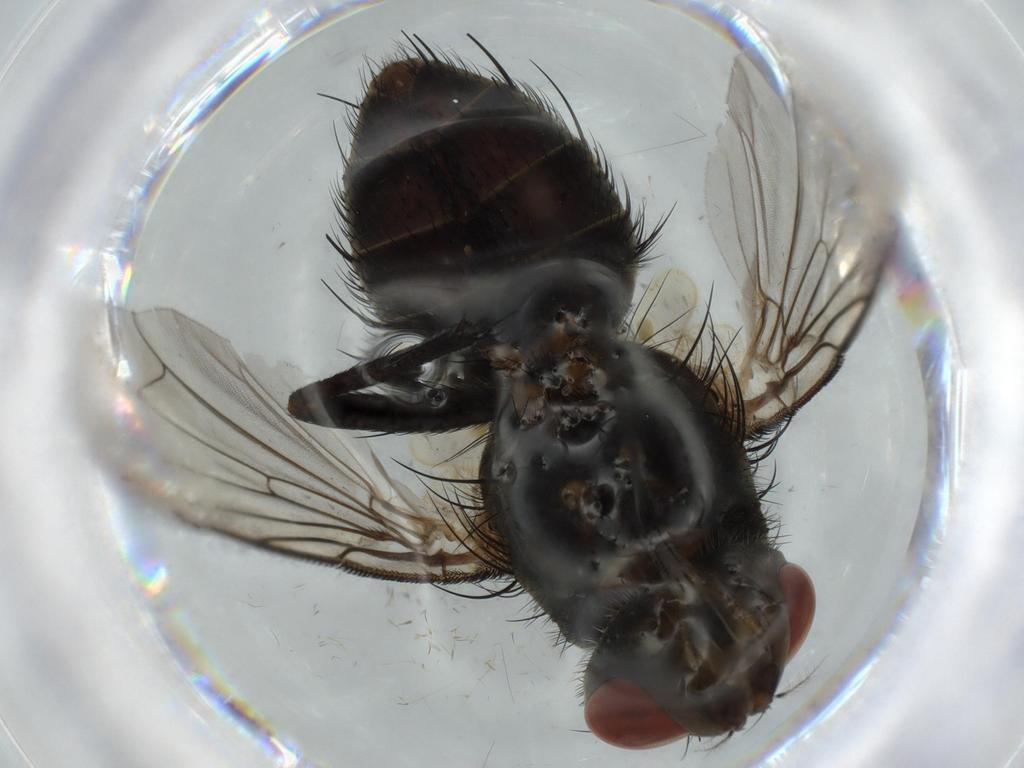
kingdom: Animalia
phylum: Arthropoda
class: Insecta
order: Diptera
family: Dolichopodidae
